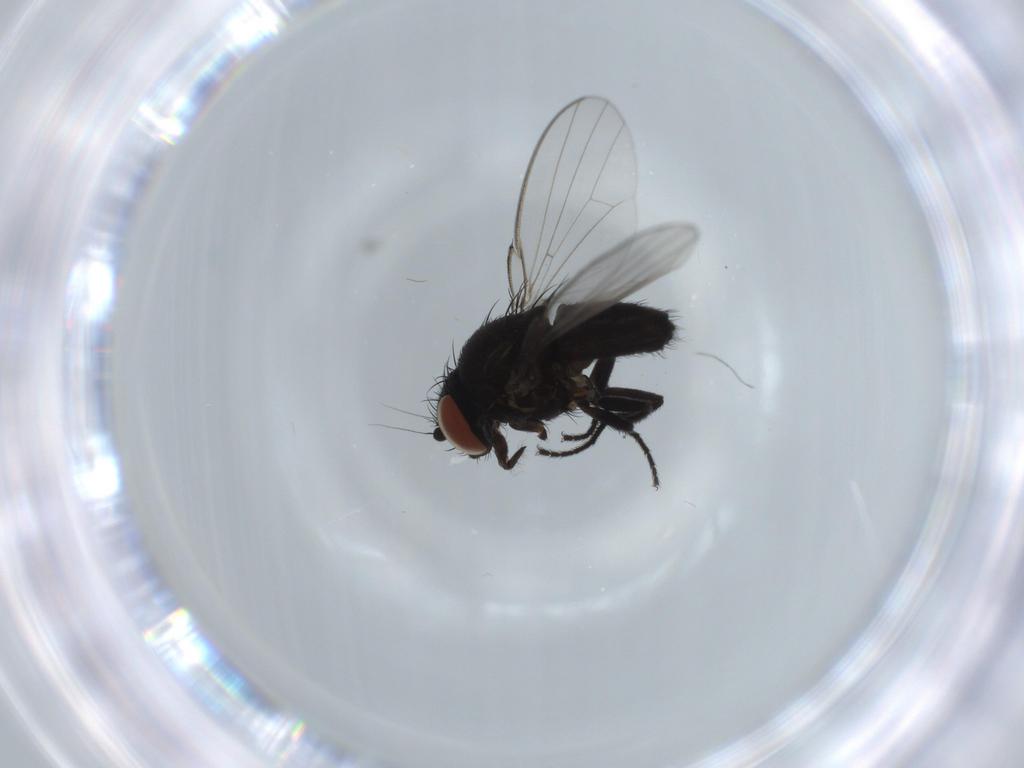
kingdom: Animalia
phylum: Arthropoda
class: Insecta
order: Diptera
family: Milichiidae
